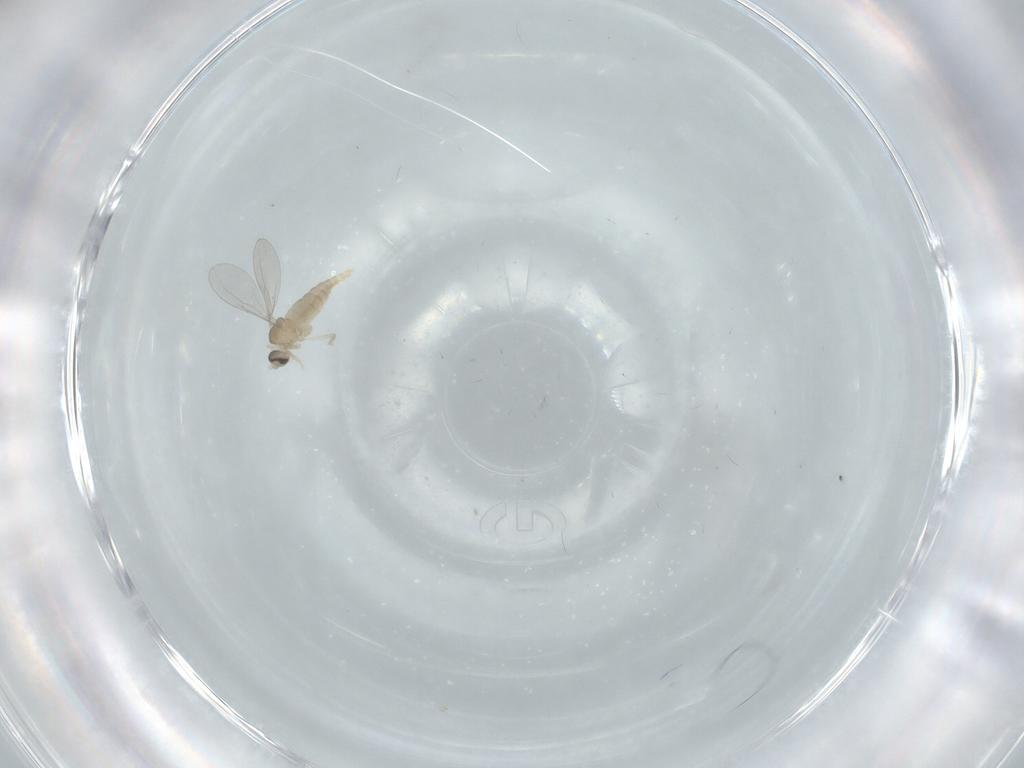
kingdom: Animalia
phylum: Arthropoda
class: Insecta
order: Diptera
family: Cecidomyiidae
